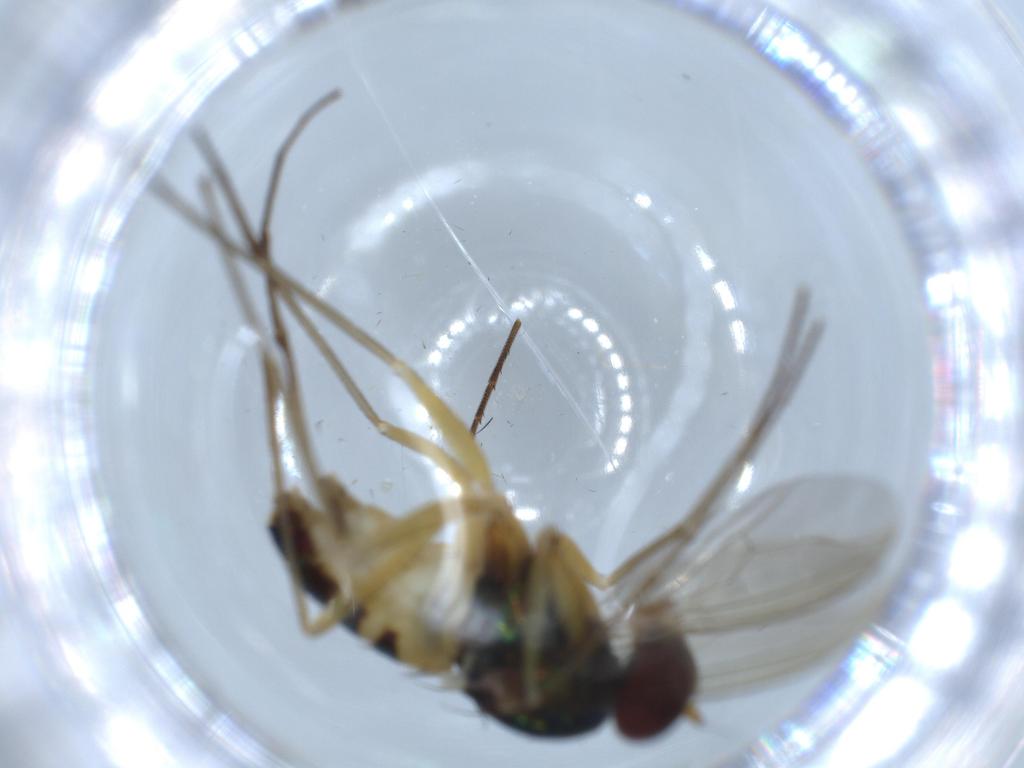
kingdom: Animalia
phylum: Arthropoda
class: Insecta
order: Diptera
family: Dolichopodidae
